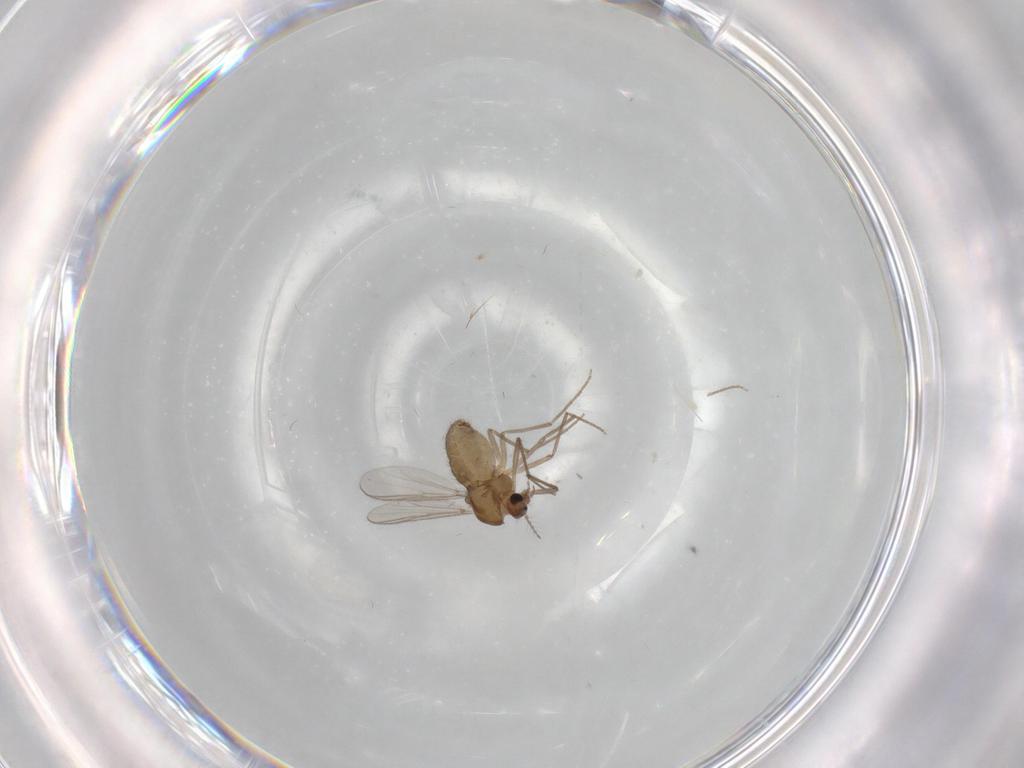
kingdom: Animalia
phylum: Arthropoda
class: Insecta
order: Diptera
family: Chironomidae
